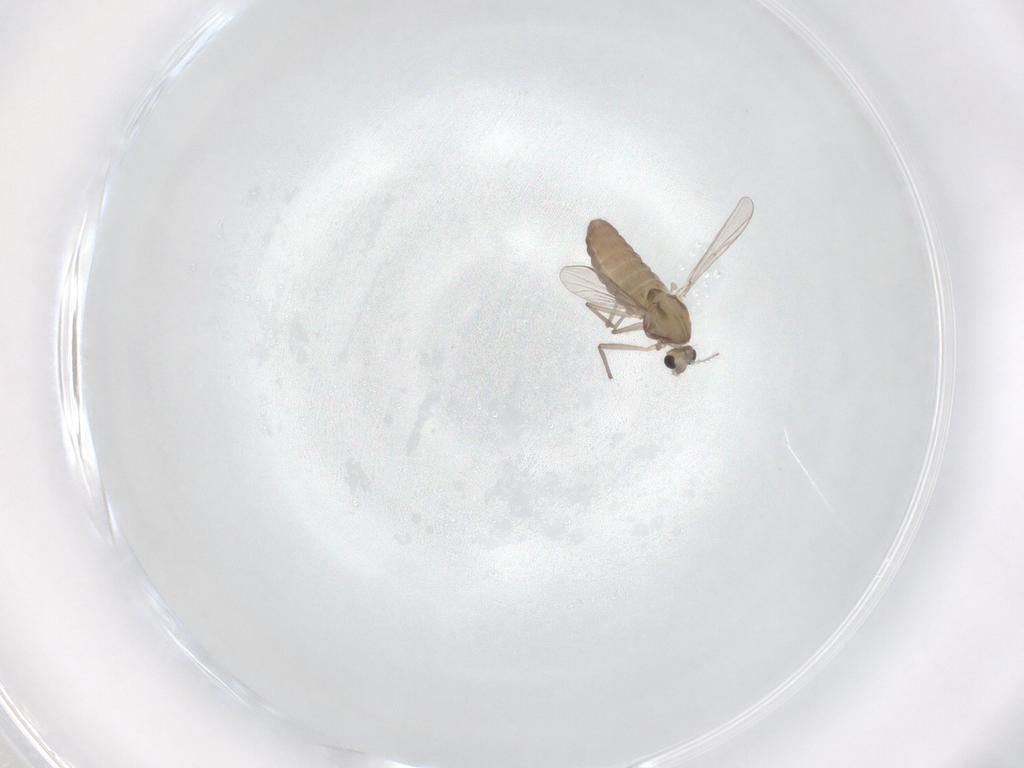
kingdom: Animalia
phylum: Arthropoda
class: Insecta
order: Diptera
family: Chironomidae
